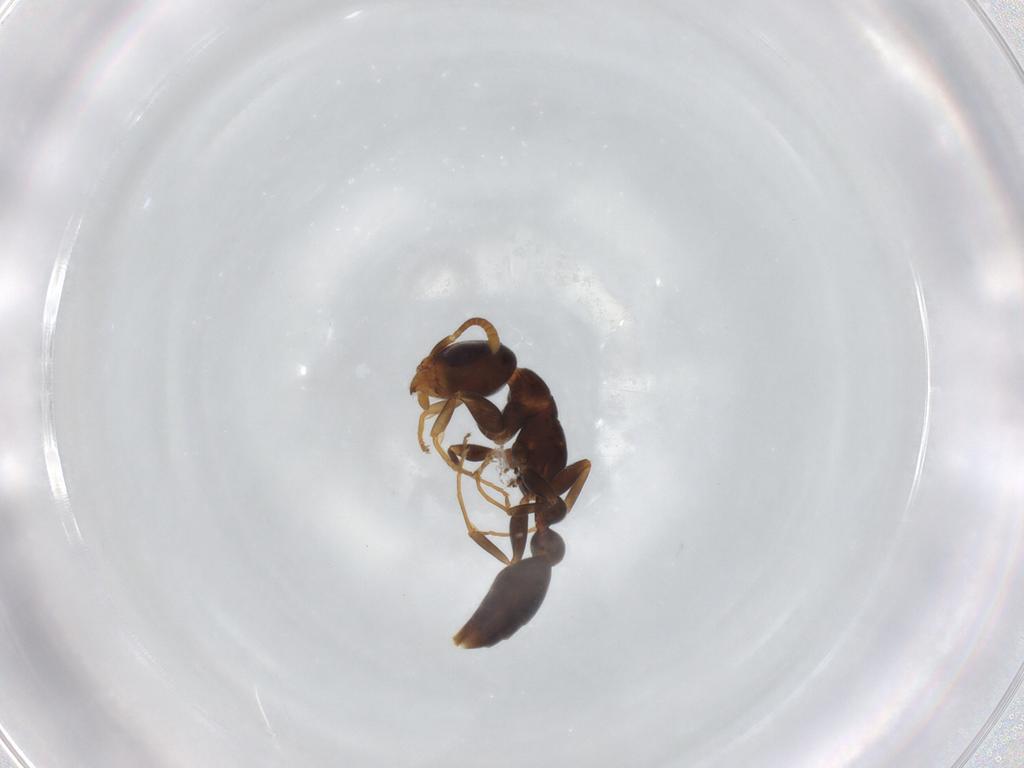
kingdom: Animalia
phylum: Arthropoda
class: Insecta
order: Hymenoptera
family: Formicidae
